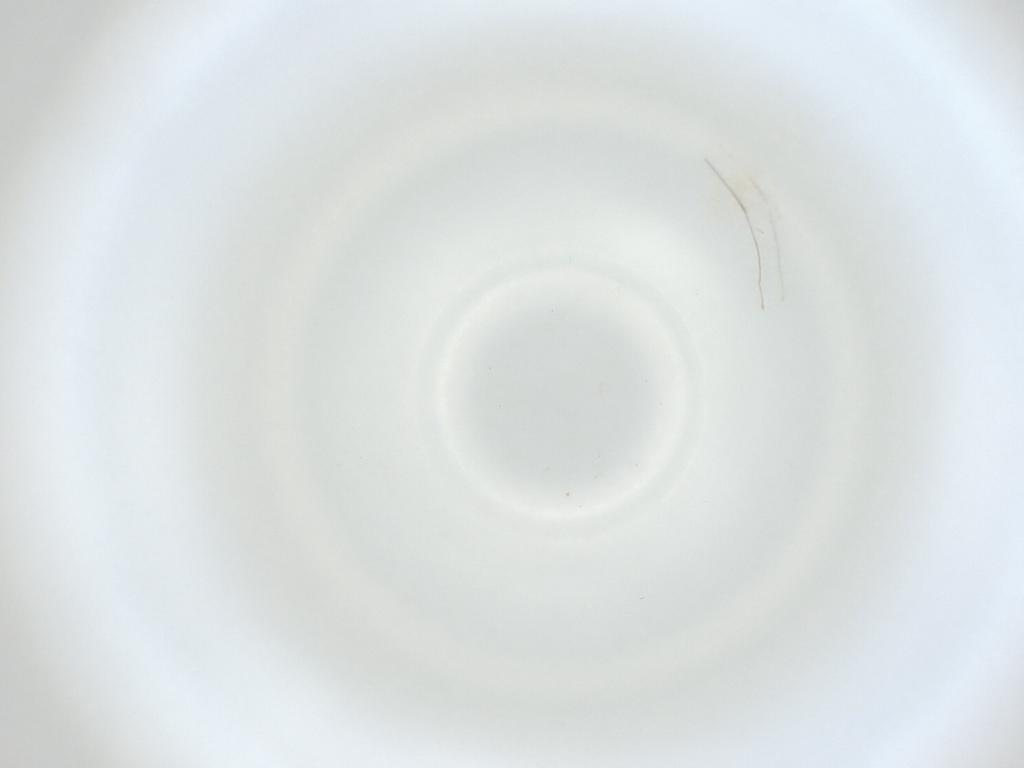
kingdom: Animalia
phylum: Arthropoda
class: Insecta
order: Diptera
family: Cecidomyiidae
